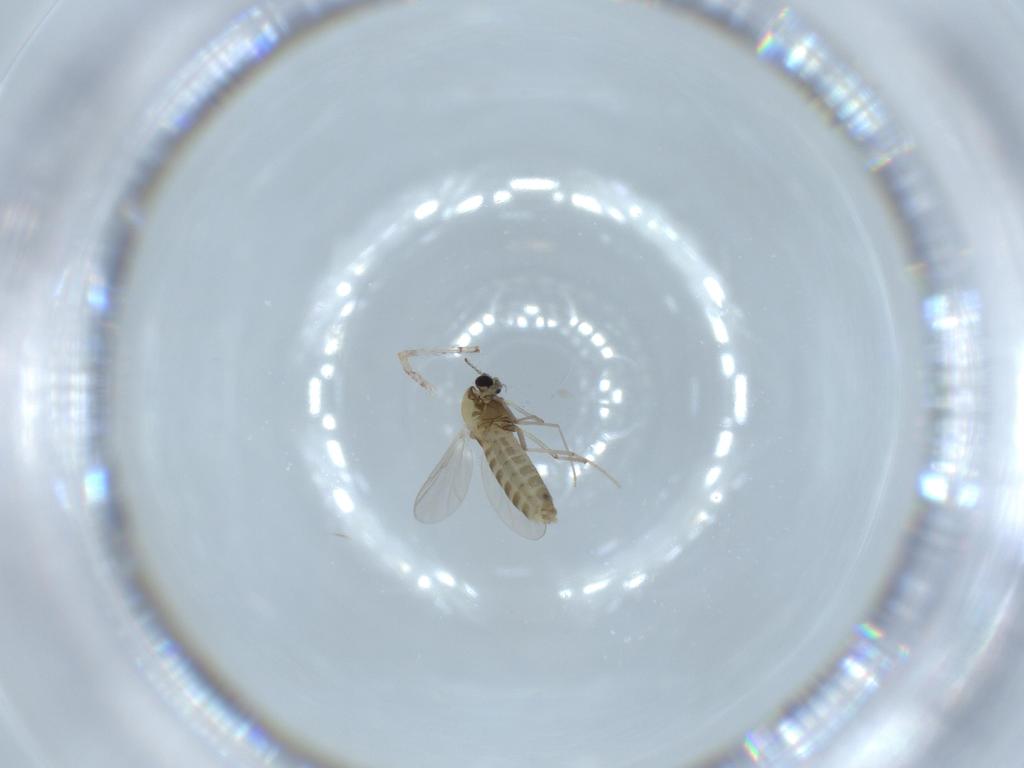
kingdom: Animalia
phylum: Arthropoda
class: Insecta
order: Diptera
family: Chironomidae
